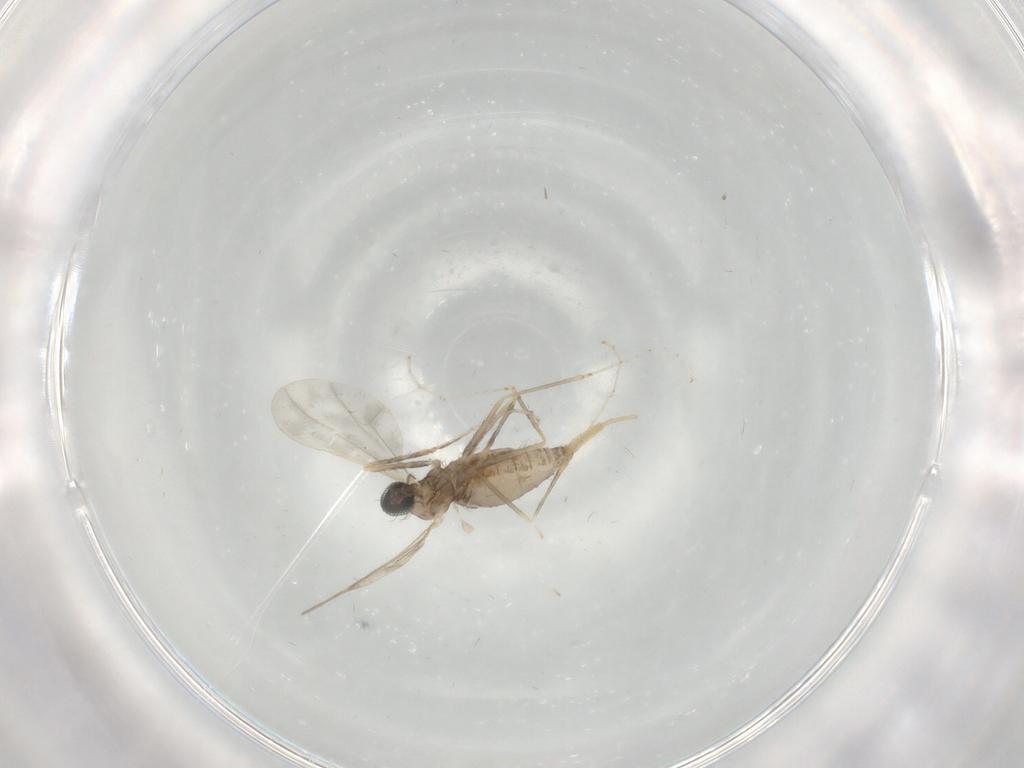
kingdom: Animalia
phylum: Arthropoda
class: Insecta
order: Diptera
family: Cecidomyiidae
